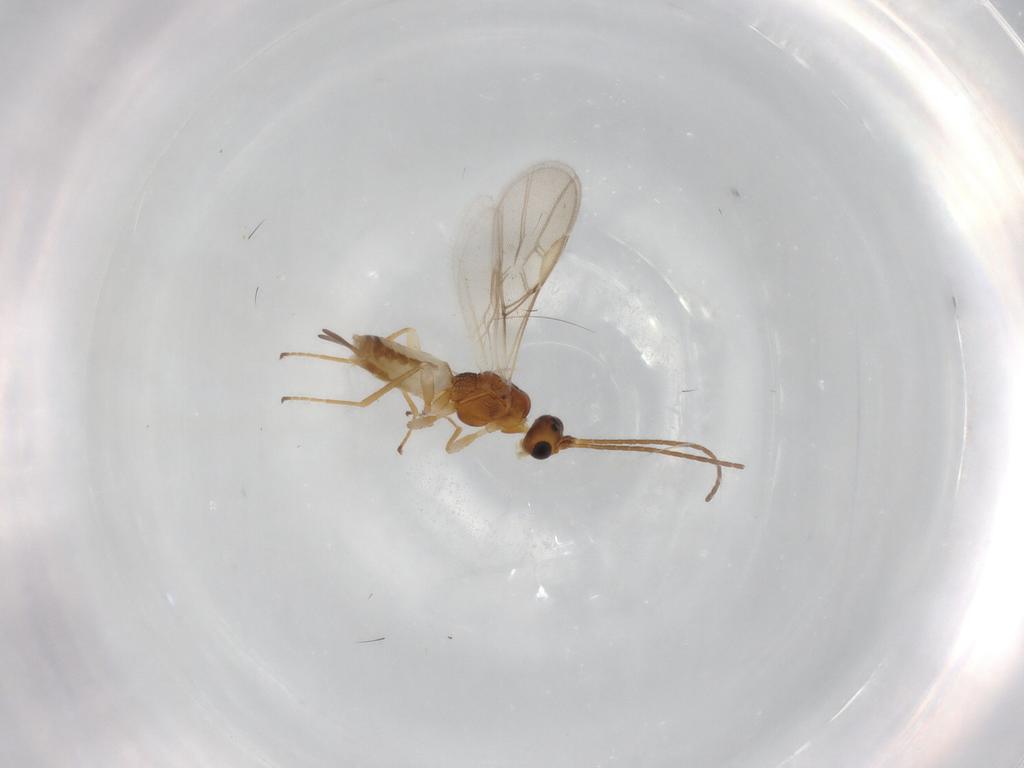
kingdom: Animalia
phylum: Arthropoda
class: Insecta
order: Hymenoptera
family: Braconidae
